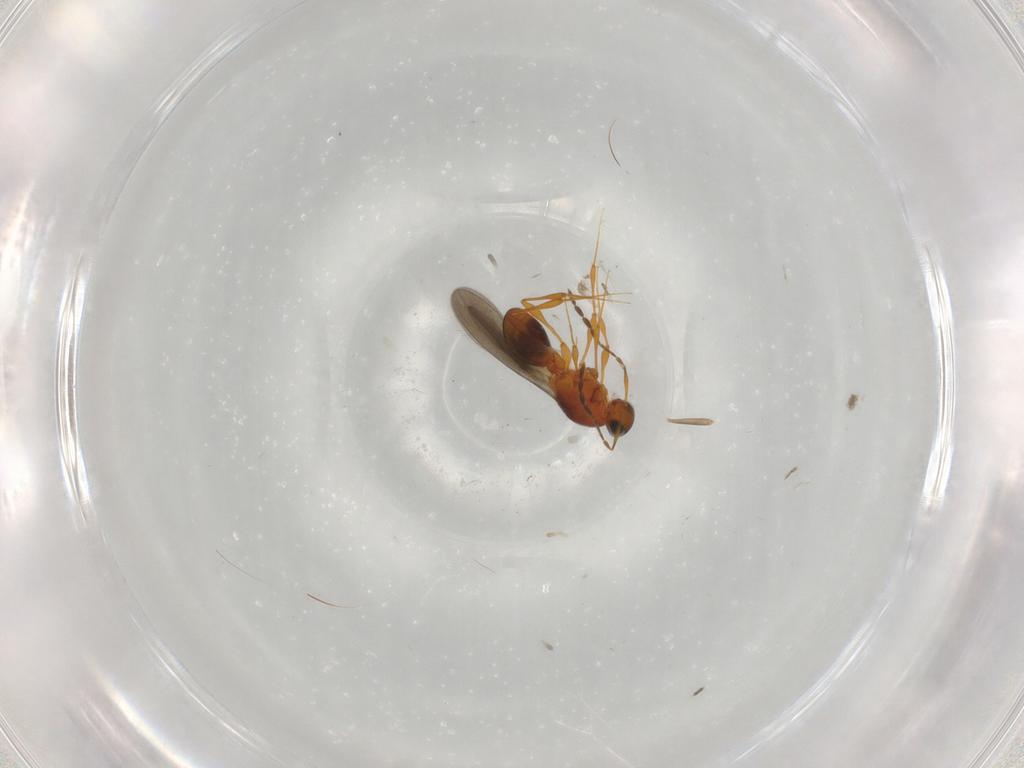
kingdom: Animalia
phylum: Arthropoda
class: Insecta
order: Hymenoptera
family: Platygastridae
